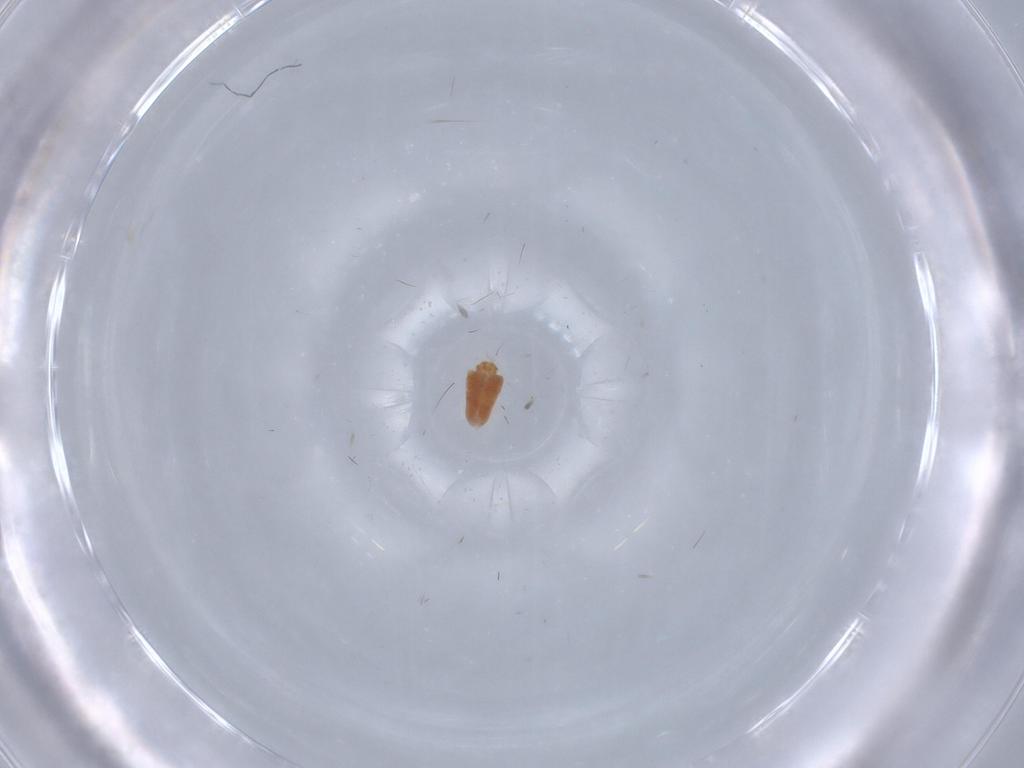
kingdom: Animalia
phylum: Arthropoda
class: Arachnida
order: Trombidiformes
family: Eupodidae
